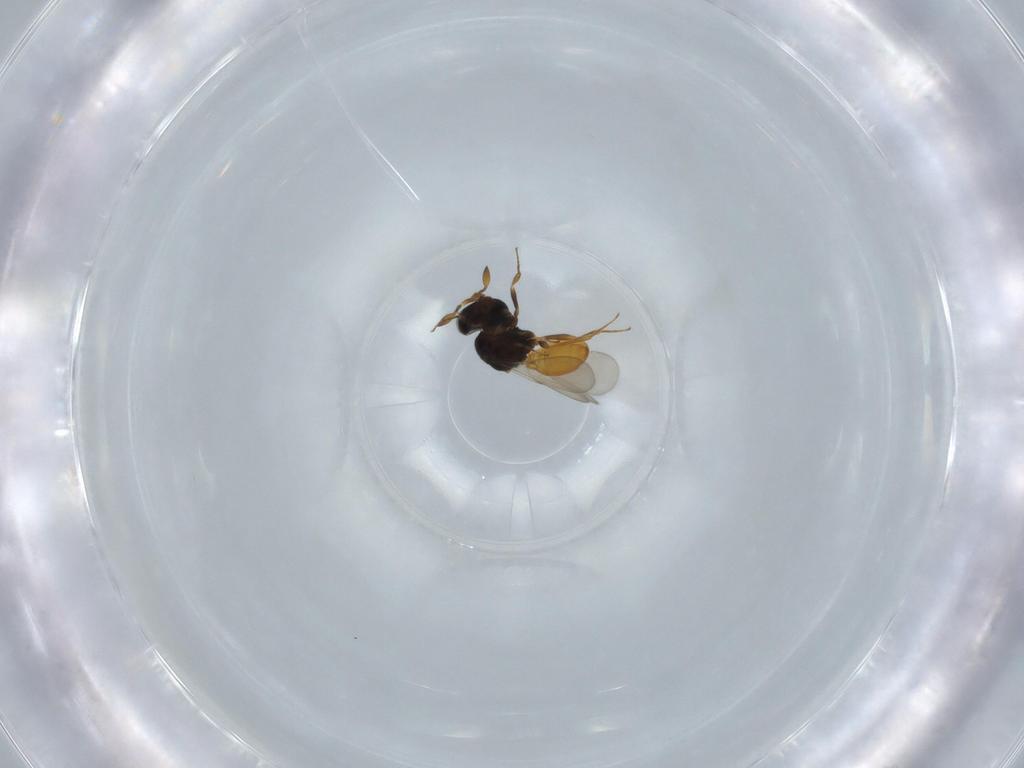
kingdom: Animalia
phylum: Arthropoda
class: Insecta
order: Hymenoptera
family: Scelionidae
